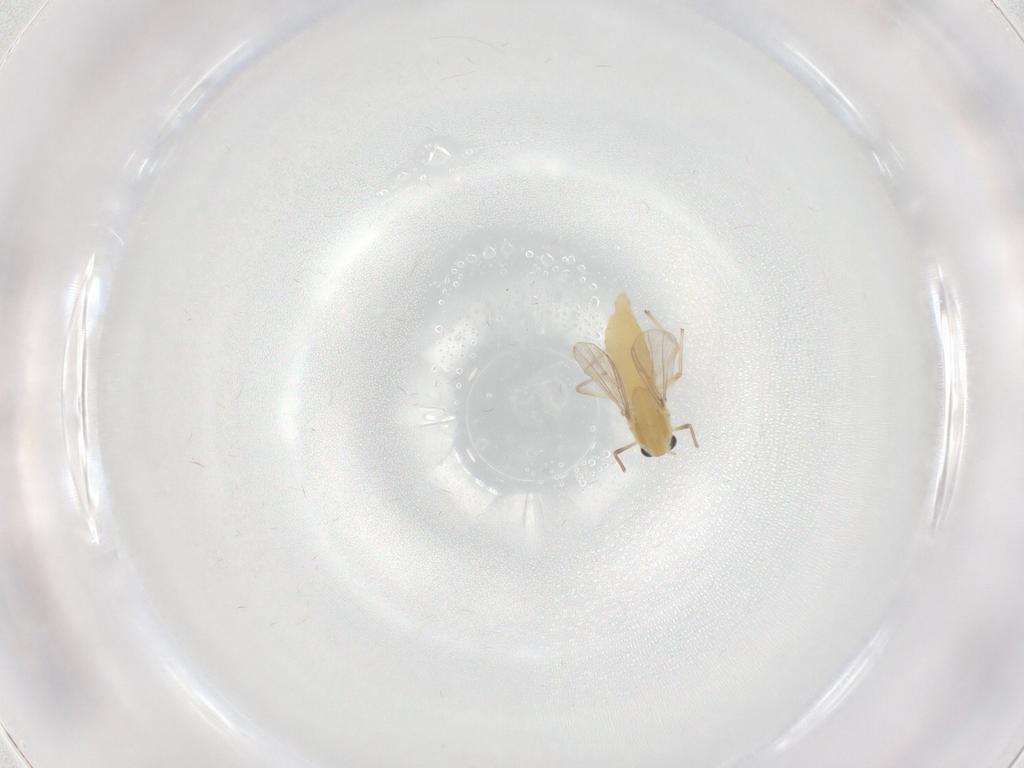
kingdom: Animalia
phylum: Arthropoda
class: Insecta
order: Diptera
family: Chironomidae
